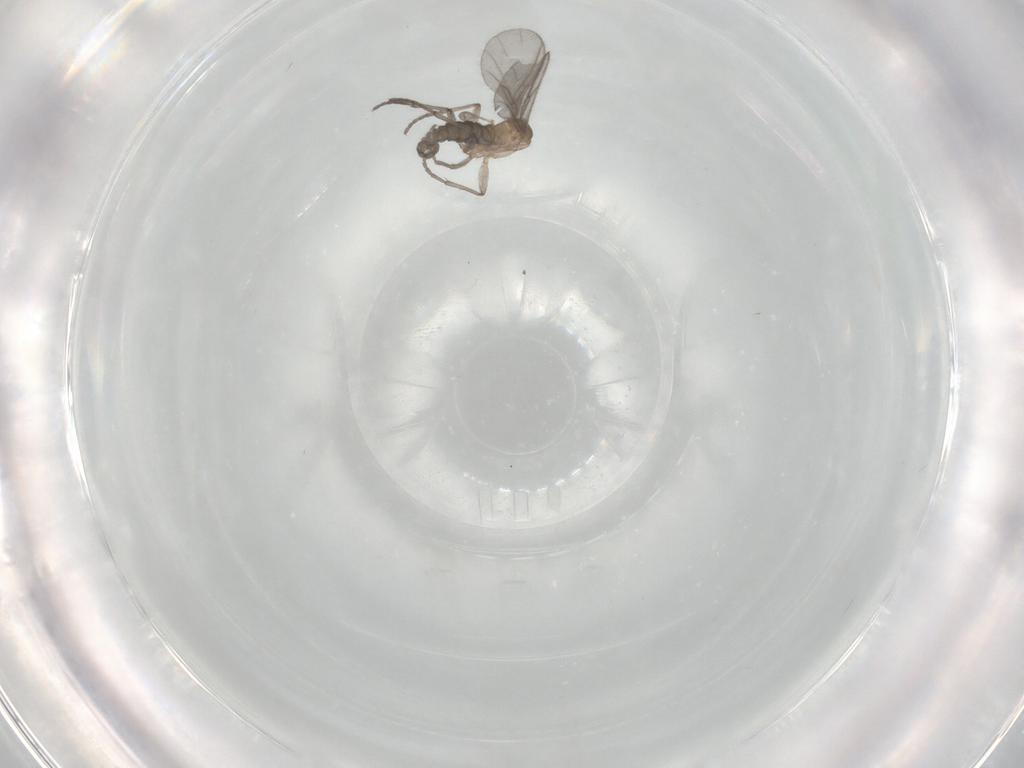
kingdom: Animalia
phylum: Arthropoda
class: Insecta
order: Diptera
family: Sciaridae
